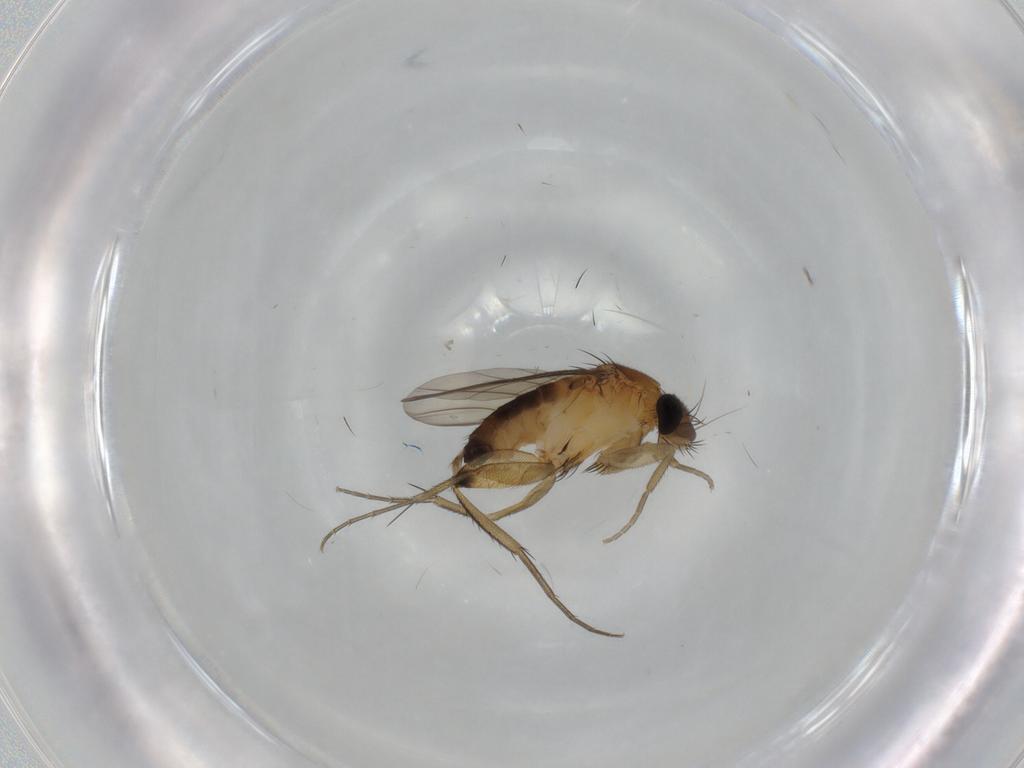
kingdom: Animalia
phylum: Arthropoda
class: Insecta
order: Diptera
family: Phoridae
